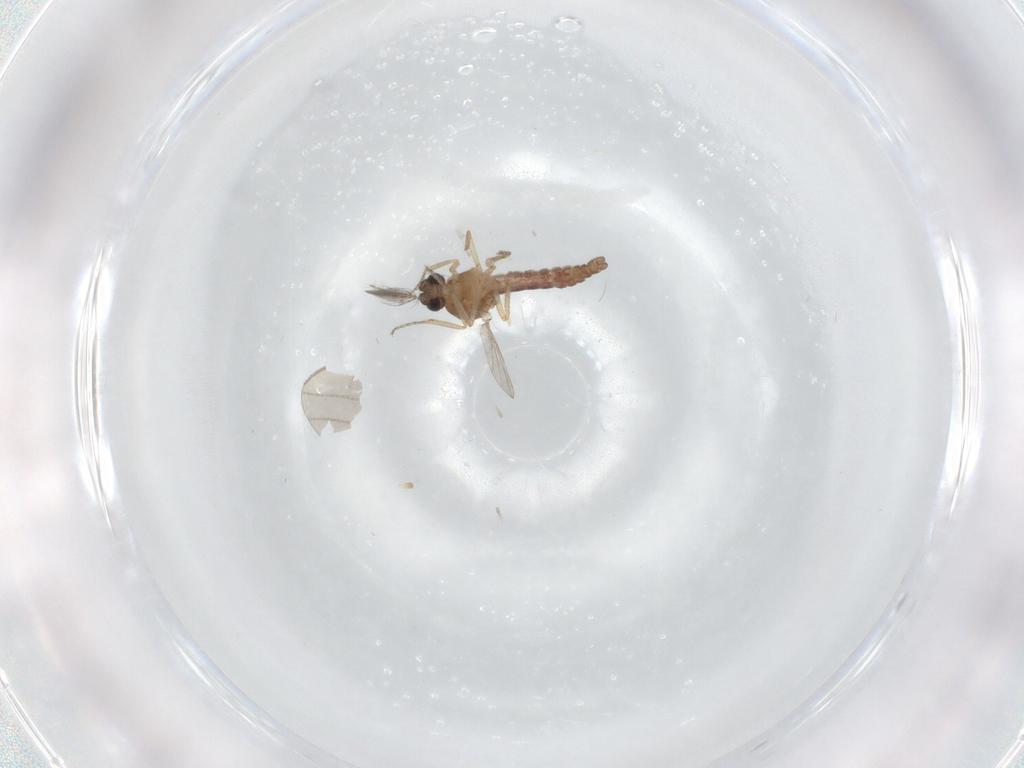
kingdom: Animalia
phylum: Arthropoda
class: Insecta
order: Diptera
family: Ceratopogonidae
